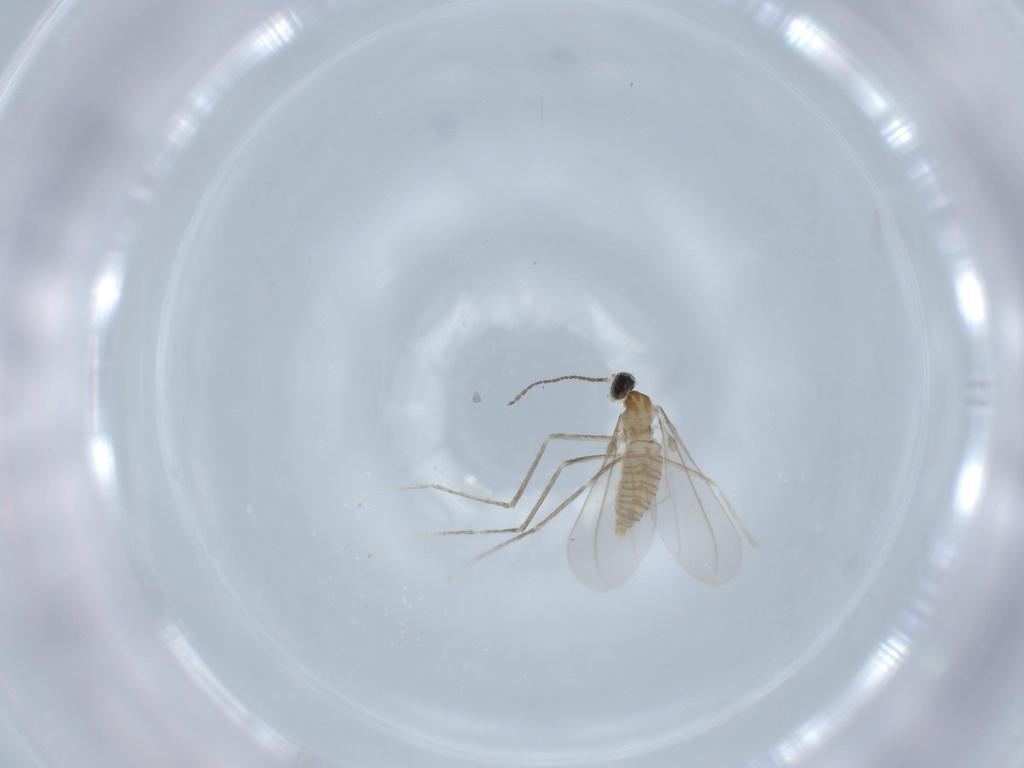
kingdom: Animalia
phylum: Arthropoda
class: Insecta
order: Diptera
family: Cecidomyiidae
